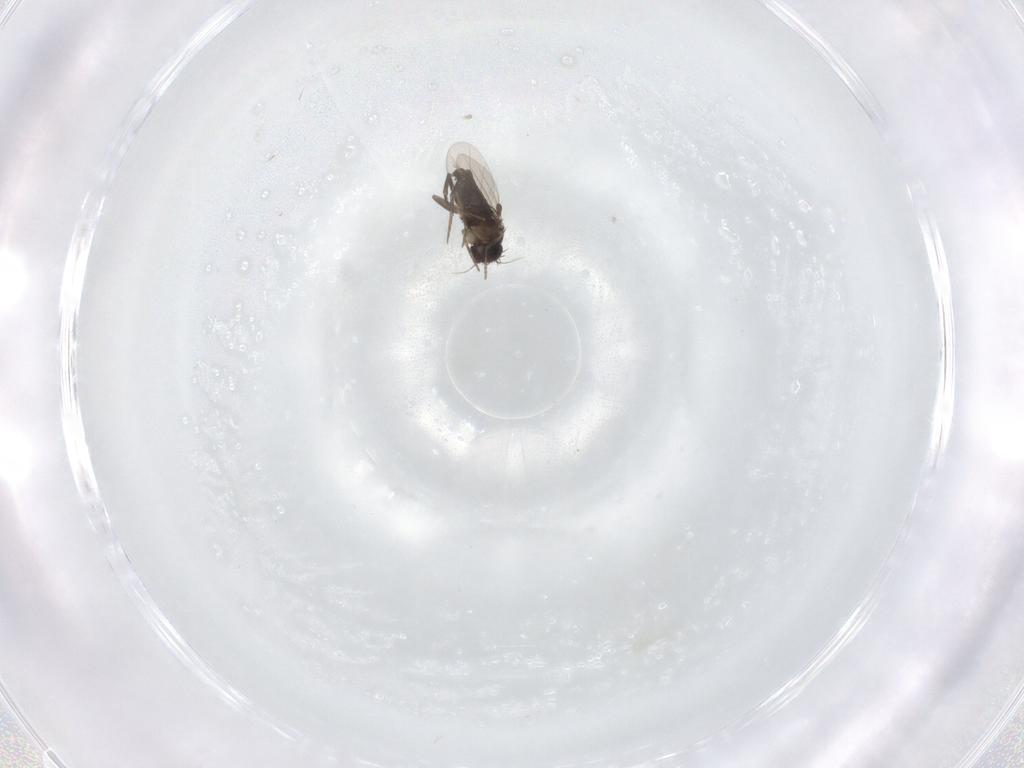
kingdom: Animalia
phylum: Arthropoda
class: Insecta
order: Diptera
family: Phoridae
